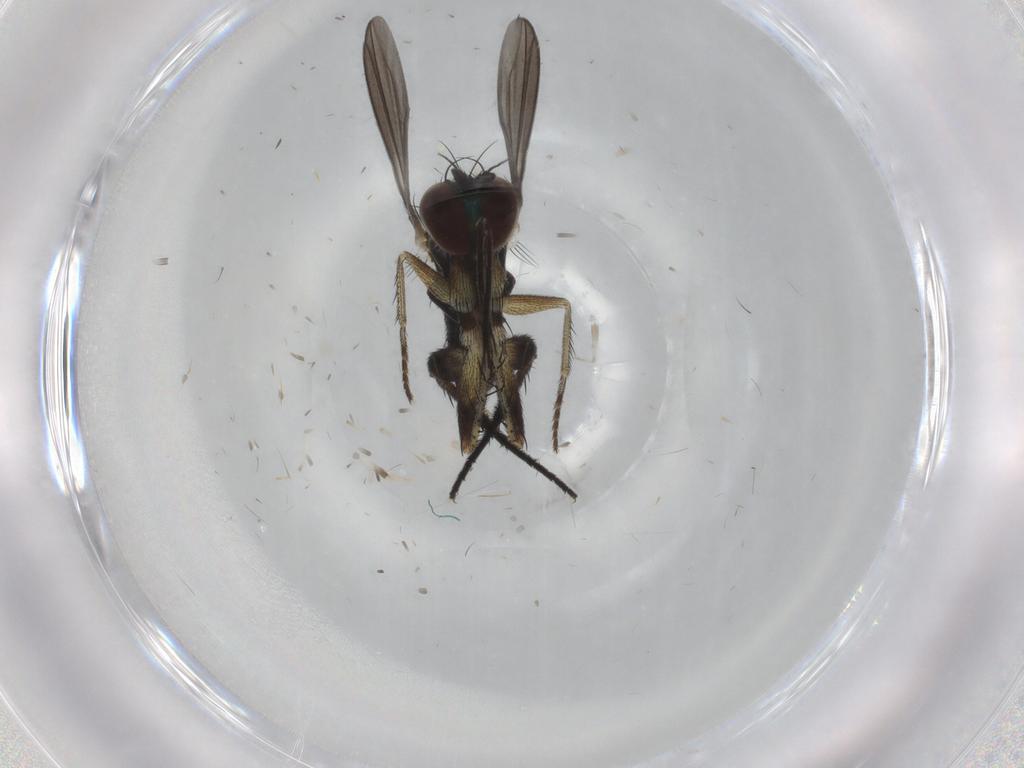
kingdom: Animalia
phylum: Arthropoda
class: Insecta
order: Diptera
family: Dolichopodidae
